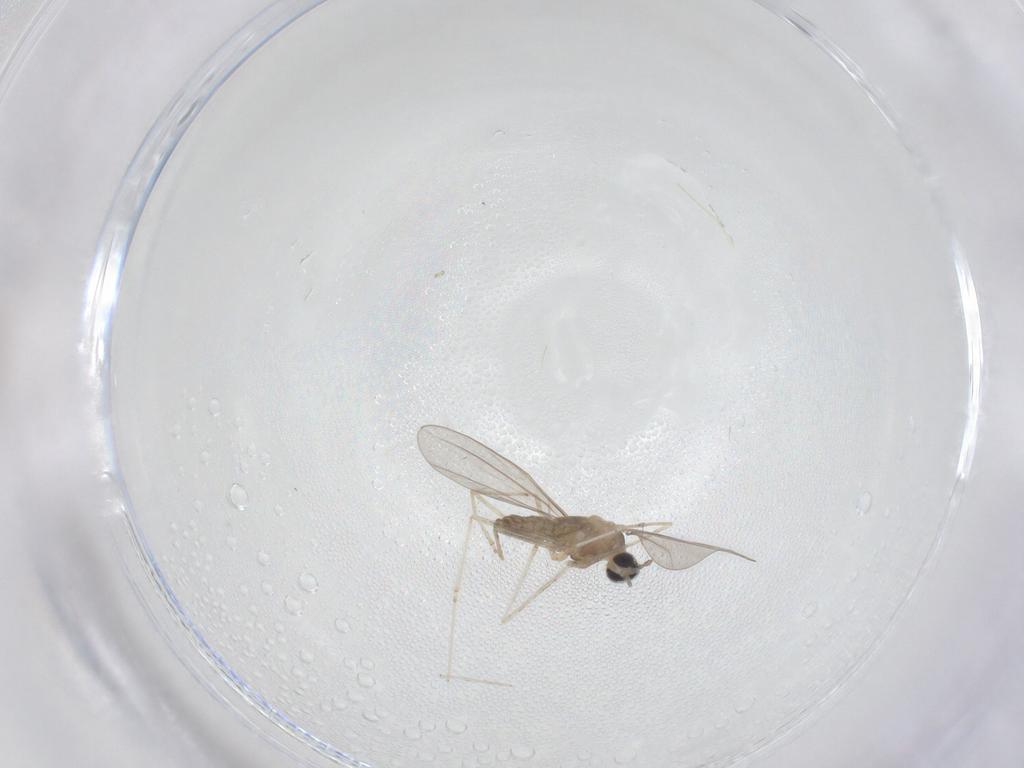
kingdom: Animalia
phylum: Arthropoda
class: Insecta
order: Diptera
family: Cecidomyiidae
